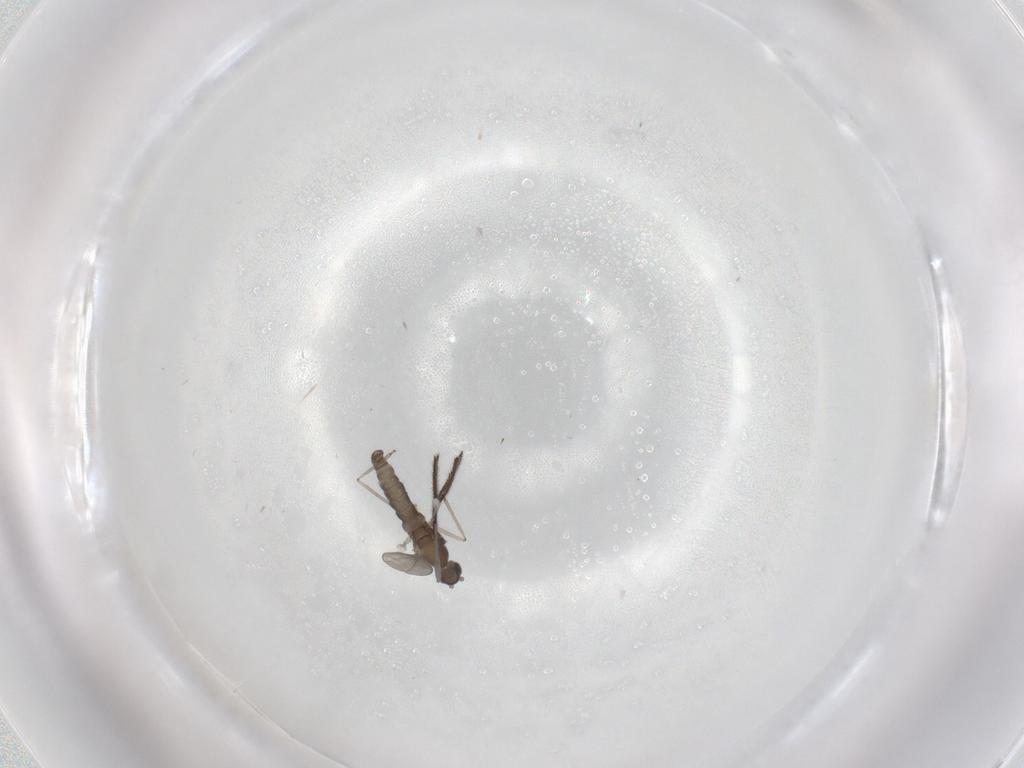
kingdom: Animalia
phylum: Arthropoda
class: Insecta
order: Diptera
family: Cecidomyiidae
